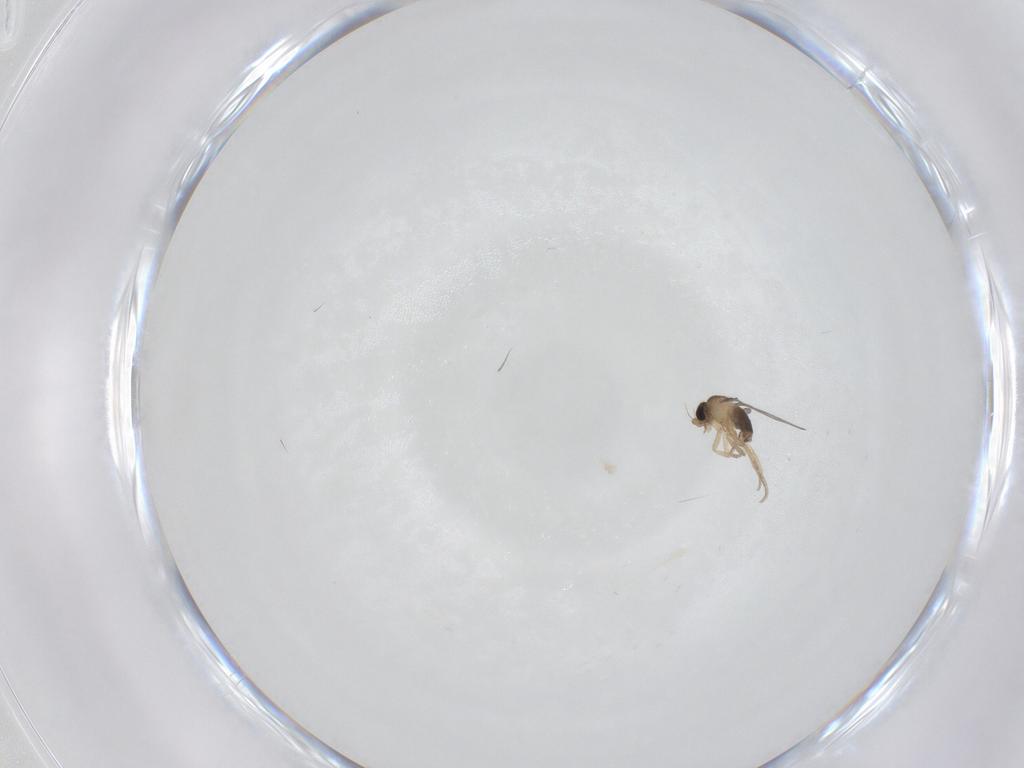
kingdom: Animalia
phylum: Arthropoda
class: Insecta
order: Diptera
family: Phoridae
